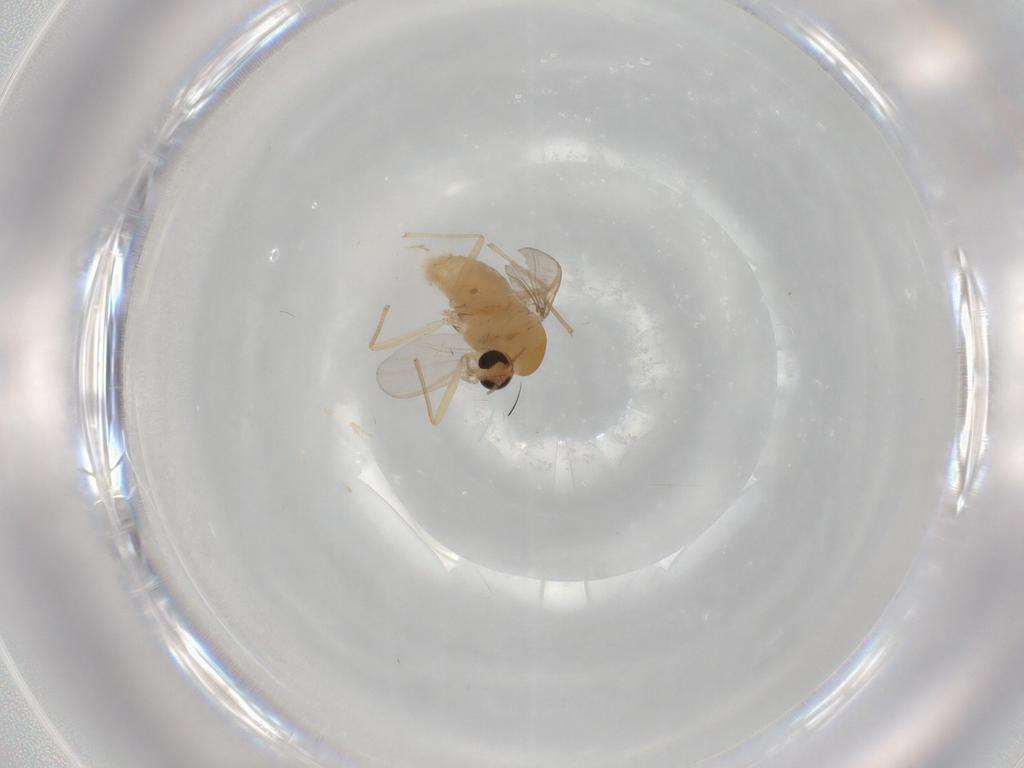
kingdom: Animalia
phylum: Arthropoda
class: Insecta
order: Diptera
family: Chironomidae
